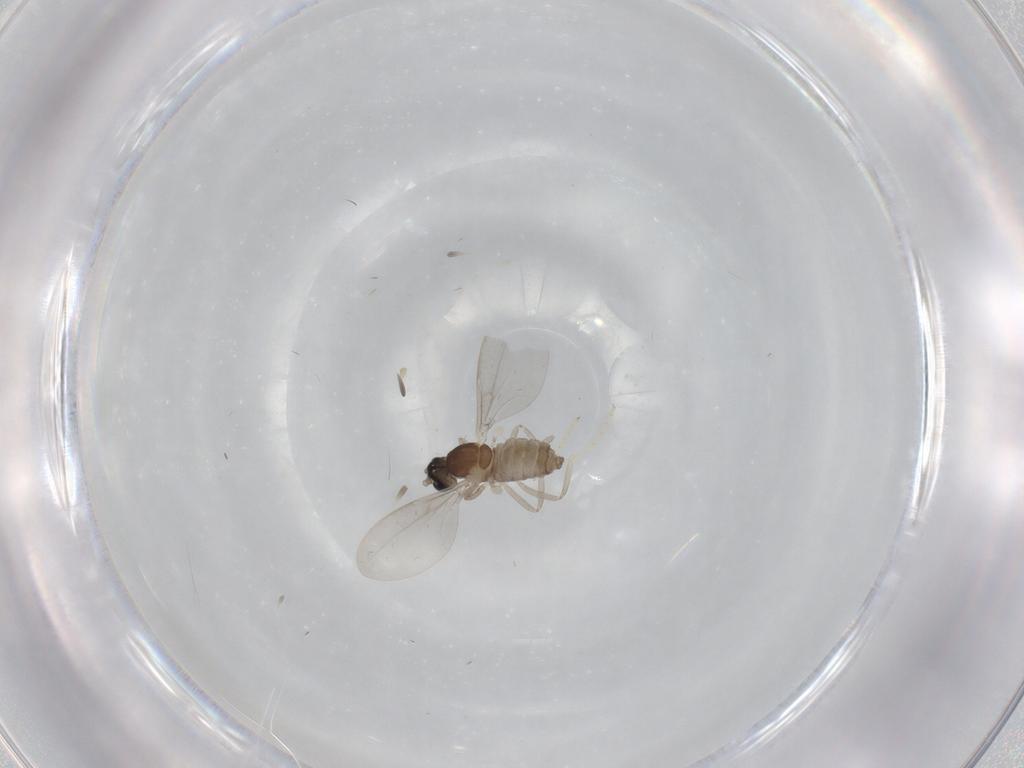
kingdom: Animalia
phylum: Arthropoda
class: Insecta
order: Diptera
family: Cecidomyiidae
